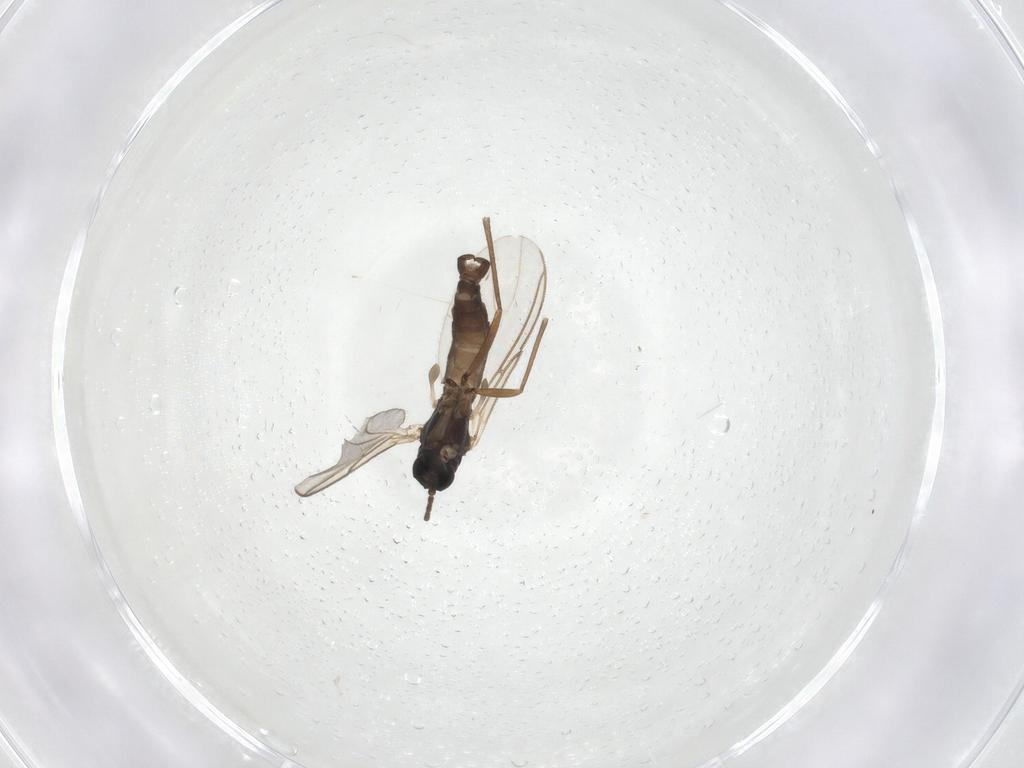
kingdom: Animalia
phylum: Arthropoda
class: Insecta
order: Diptera
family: Sciaridae
